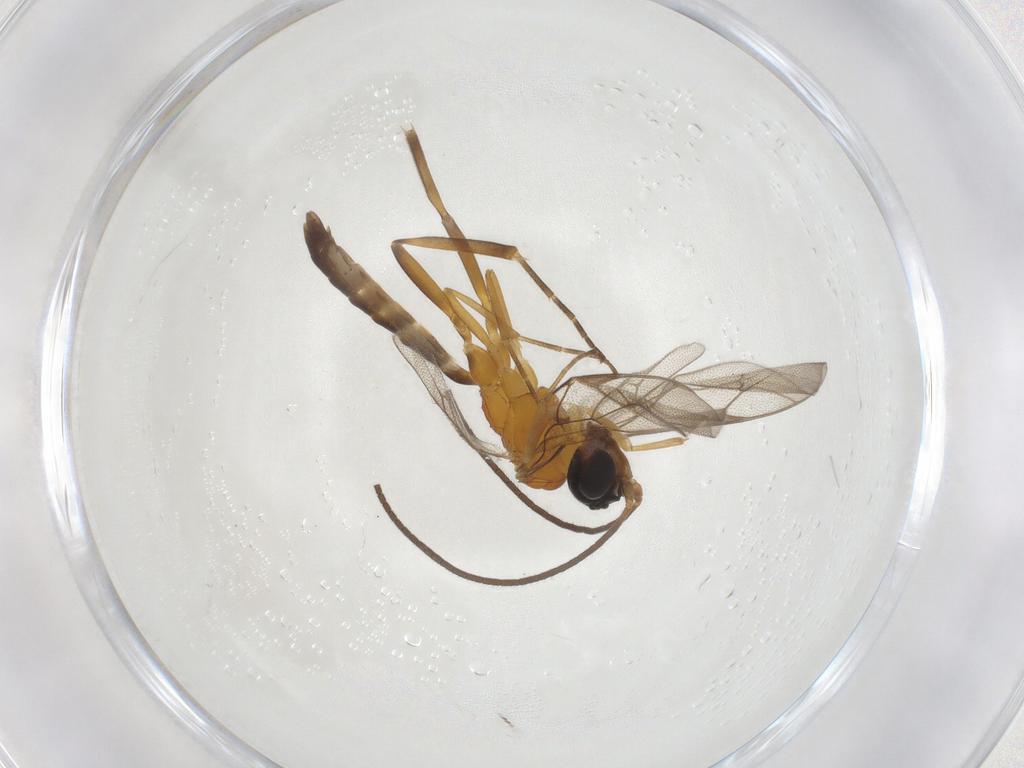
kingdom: Animalia
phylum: Arthropoda
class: Insecta
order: Hymenoptera
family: Ichneumonidae
